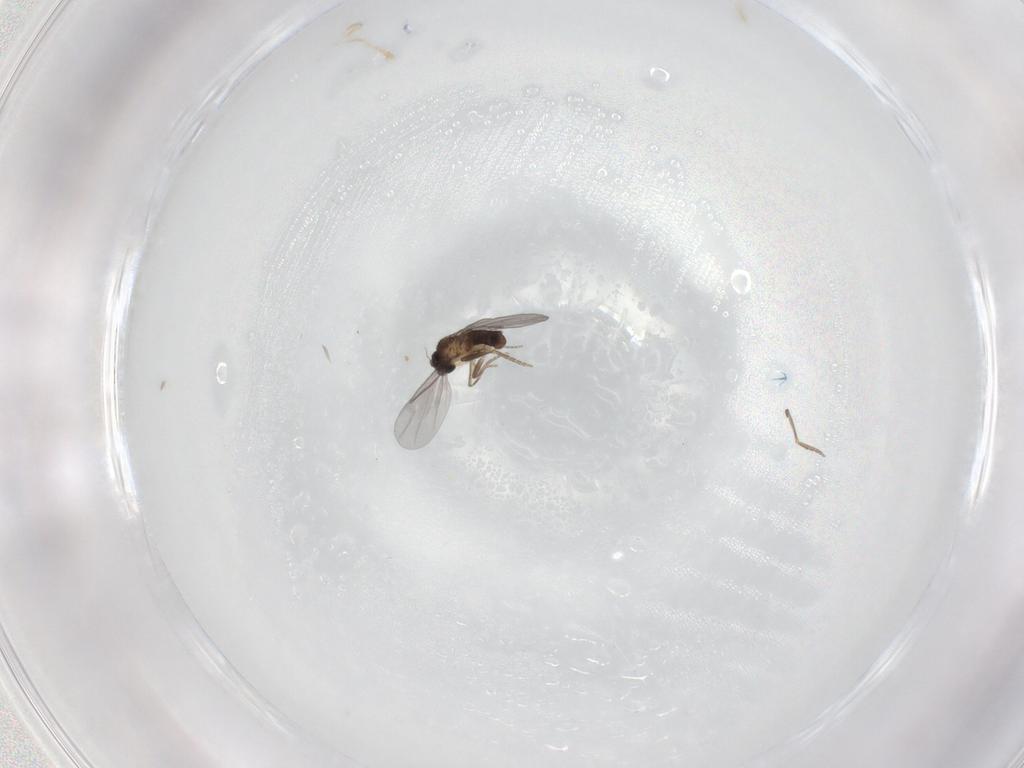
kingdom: Animalia
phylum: Arthropoda
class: Insecta
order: Diptera
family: Limoniidae
